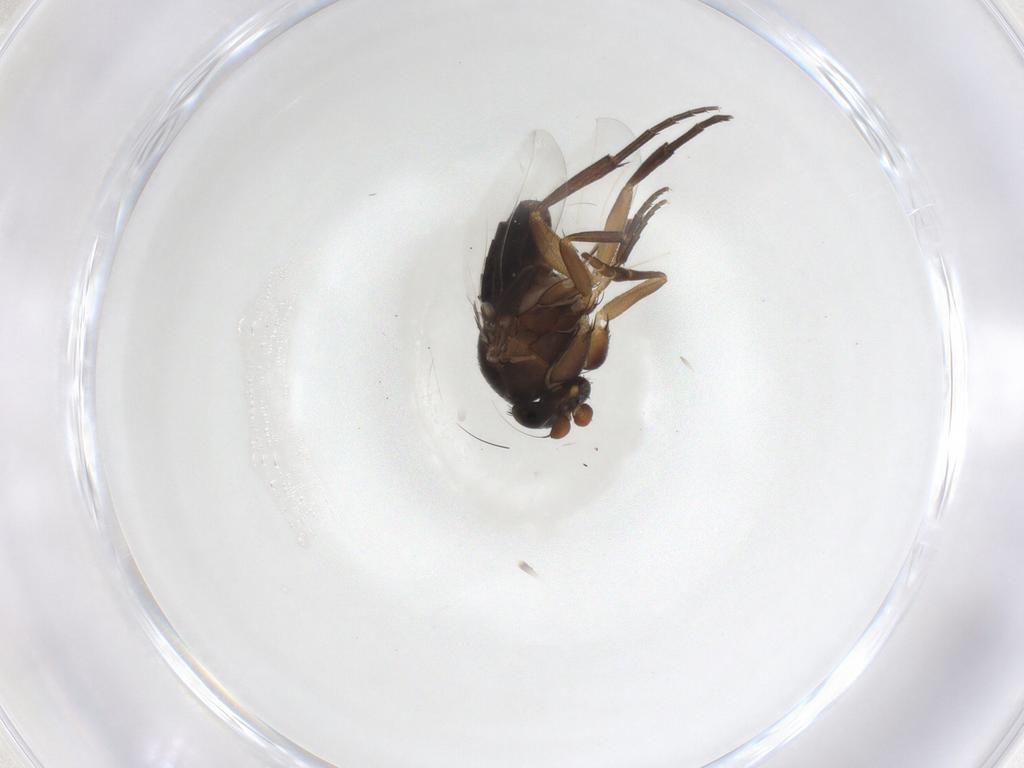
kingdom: Animalia
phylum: Arthropoda
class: Insecta
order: Diptera
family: Phoridae
